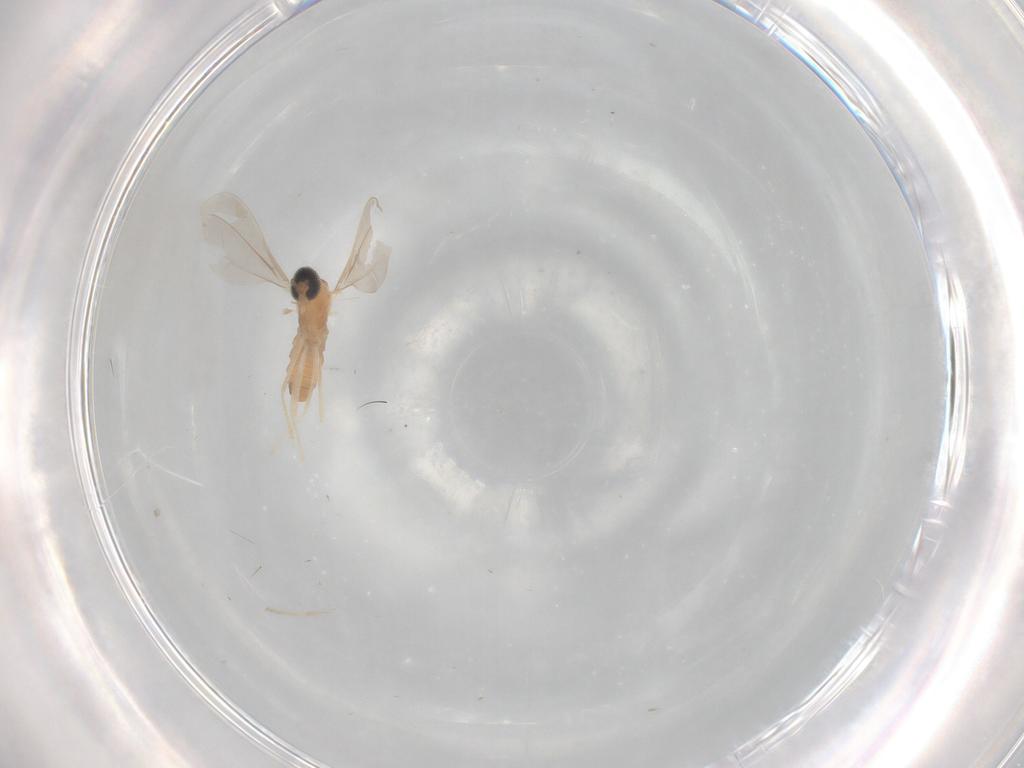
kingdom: Animalia
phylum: Arthropoda
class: Insecta
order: Diptera
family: Cecidomyiidae
